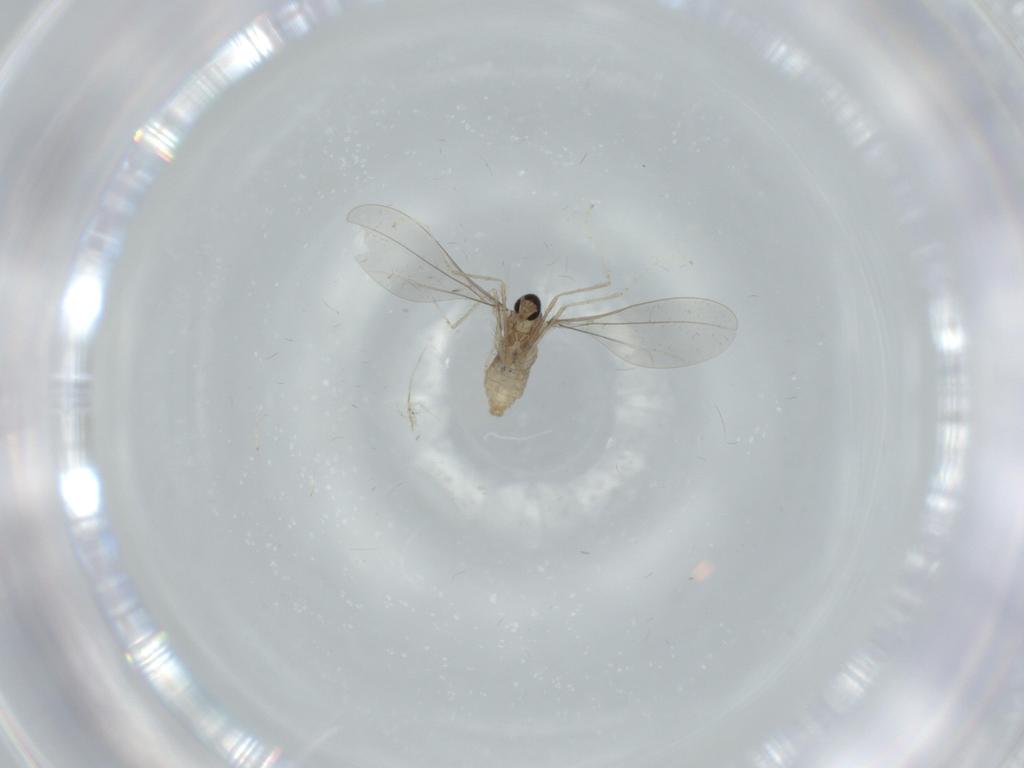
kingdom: Animalia
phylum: Arthropoda
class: Insecta
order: Diptera
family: Cecidomyiidae
